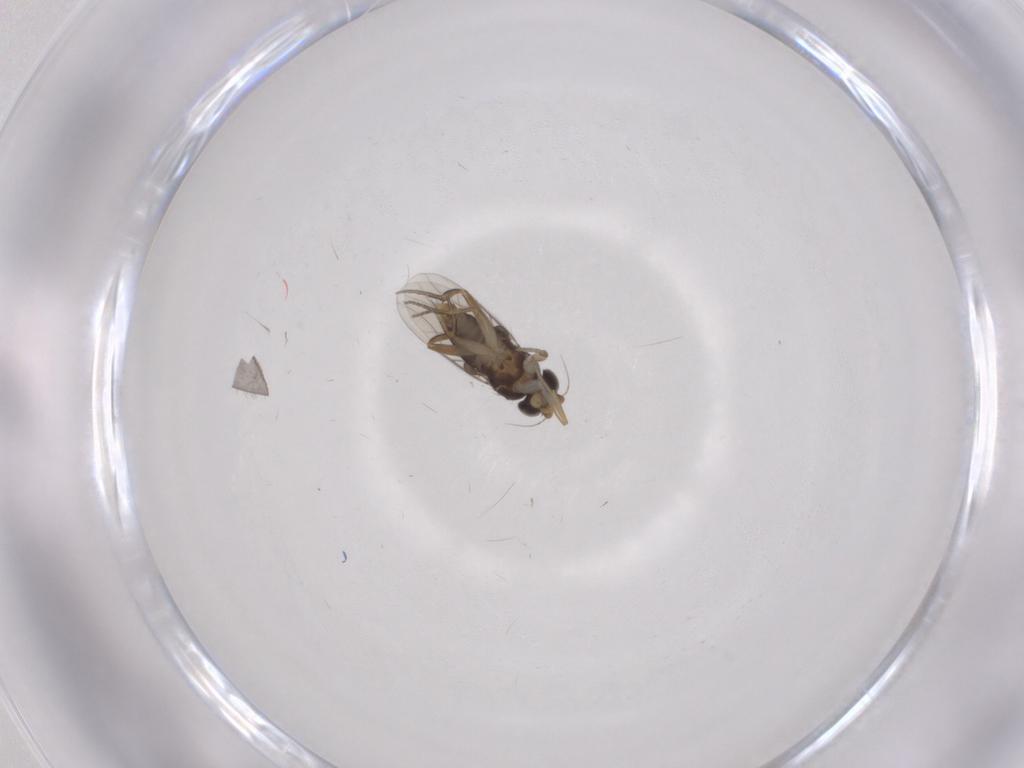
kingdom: Animalia
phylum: Arthropoda
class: Insecta
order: Diptera
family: Phoridae
